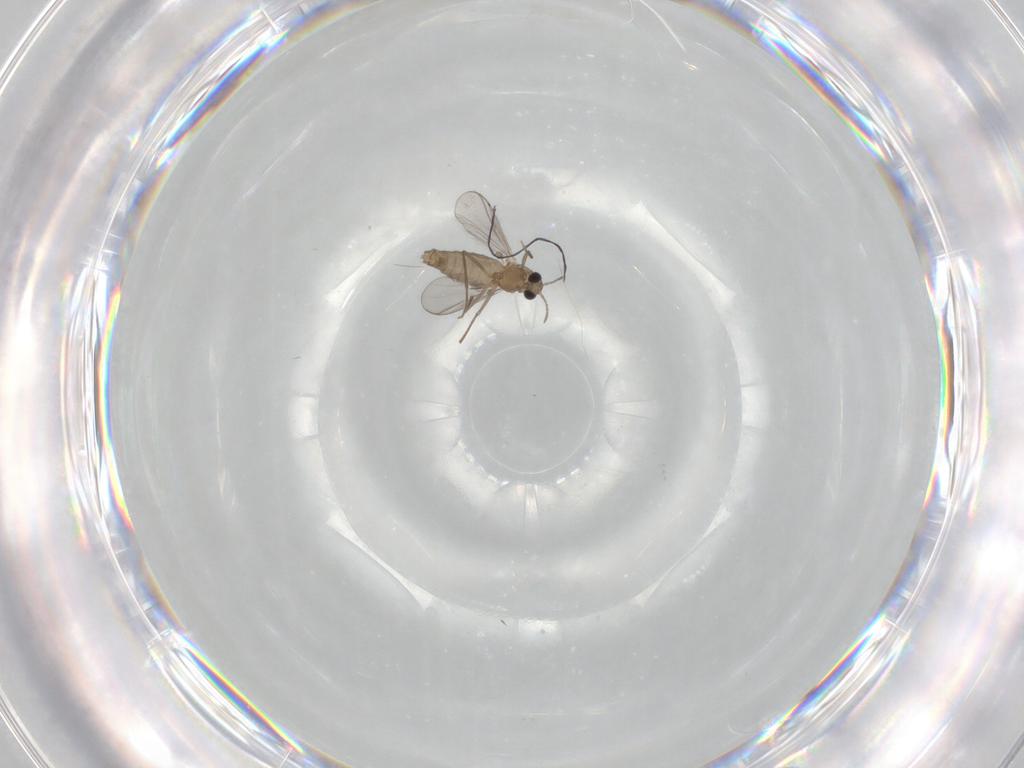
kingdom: Animalia
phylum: Arthropoda
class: Insecta
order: Diptera
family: Chironomidae
